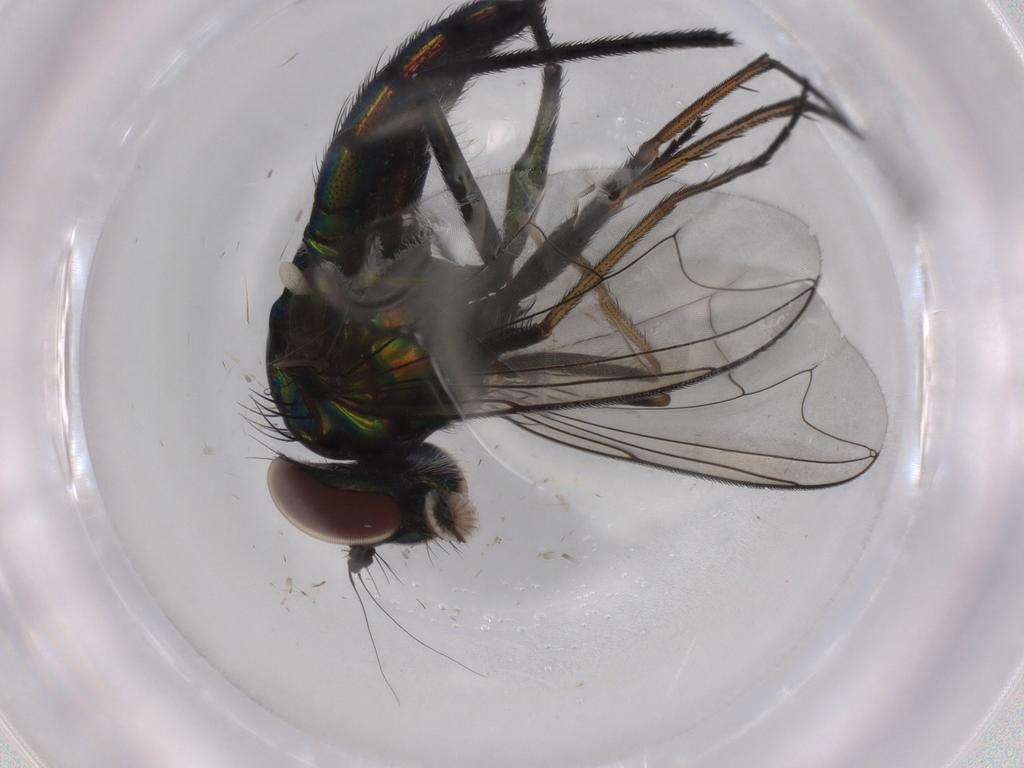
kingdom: Animalia
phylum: Arthropoda
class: Insecta
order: Diptera
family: Dolichopodidae
